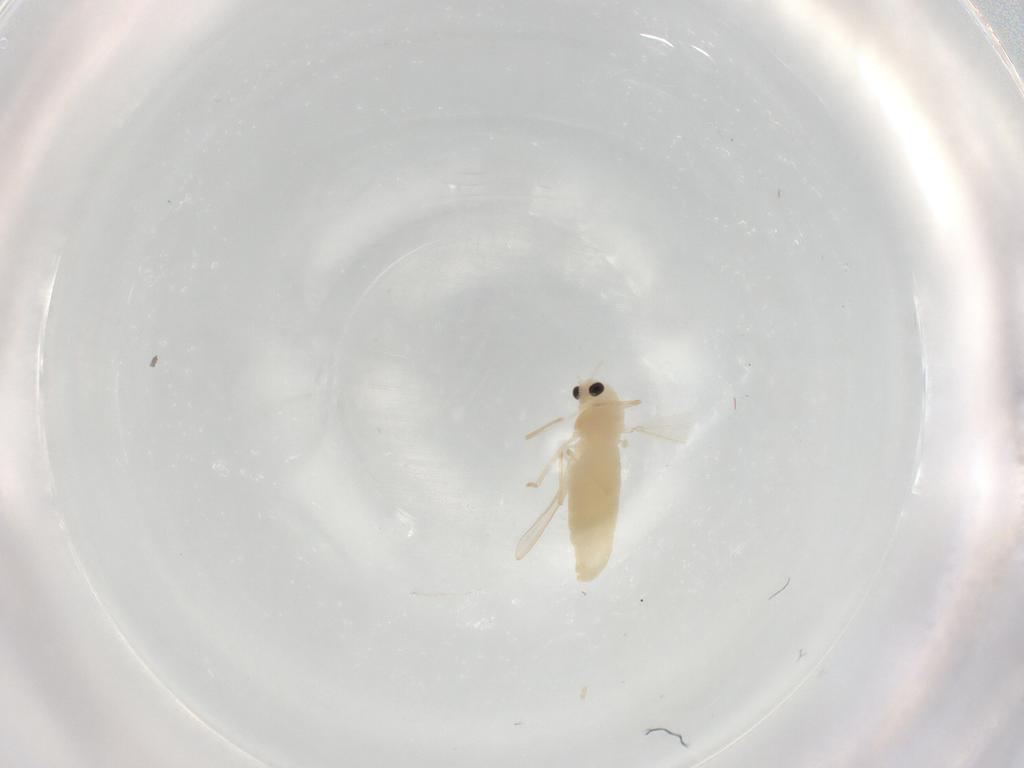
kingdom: Animalia
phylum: Arthropoda
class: Insecta
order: Diptera
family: Chironomidae
